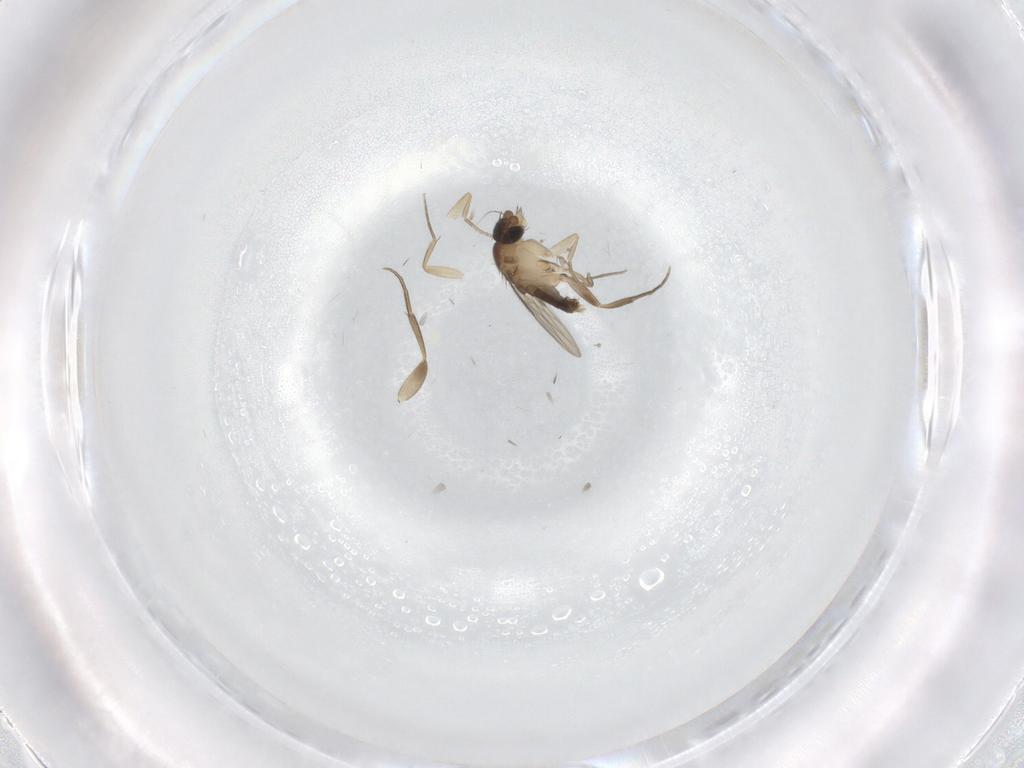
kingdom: Animalia
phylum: Arthropoda
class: Insecta
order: Diptera
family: Phoridae
